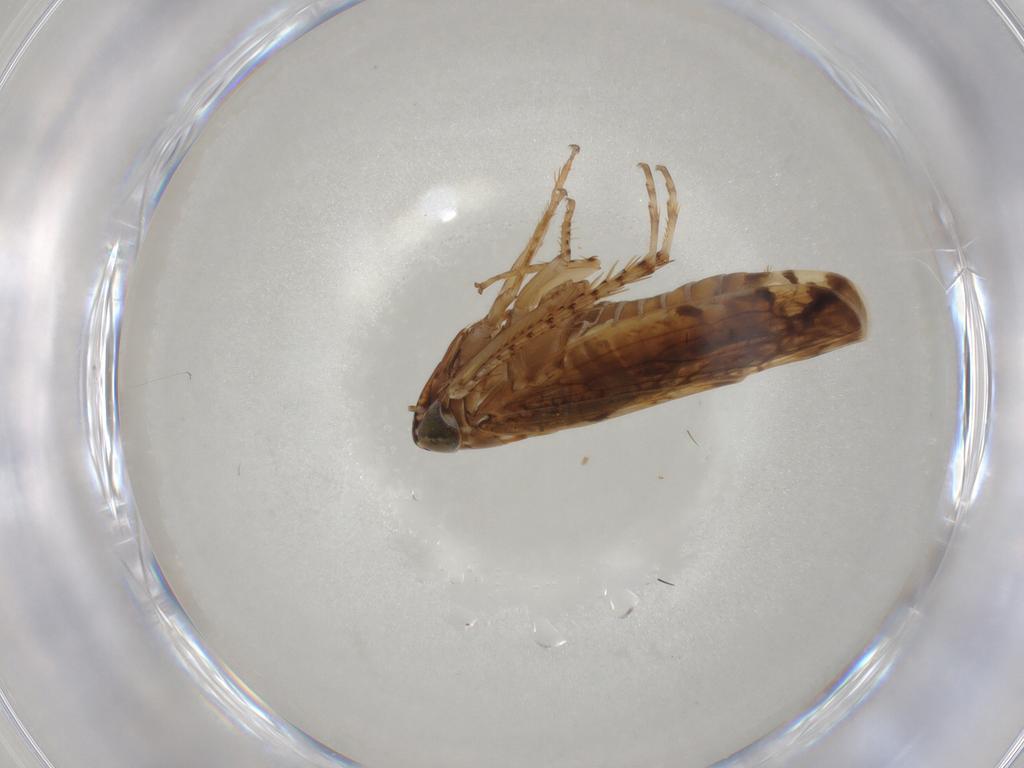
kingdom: Animalia
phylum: Arthropoda
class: Insecta
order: Hemiptera
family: Cicadellidae
